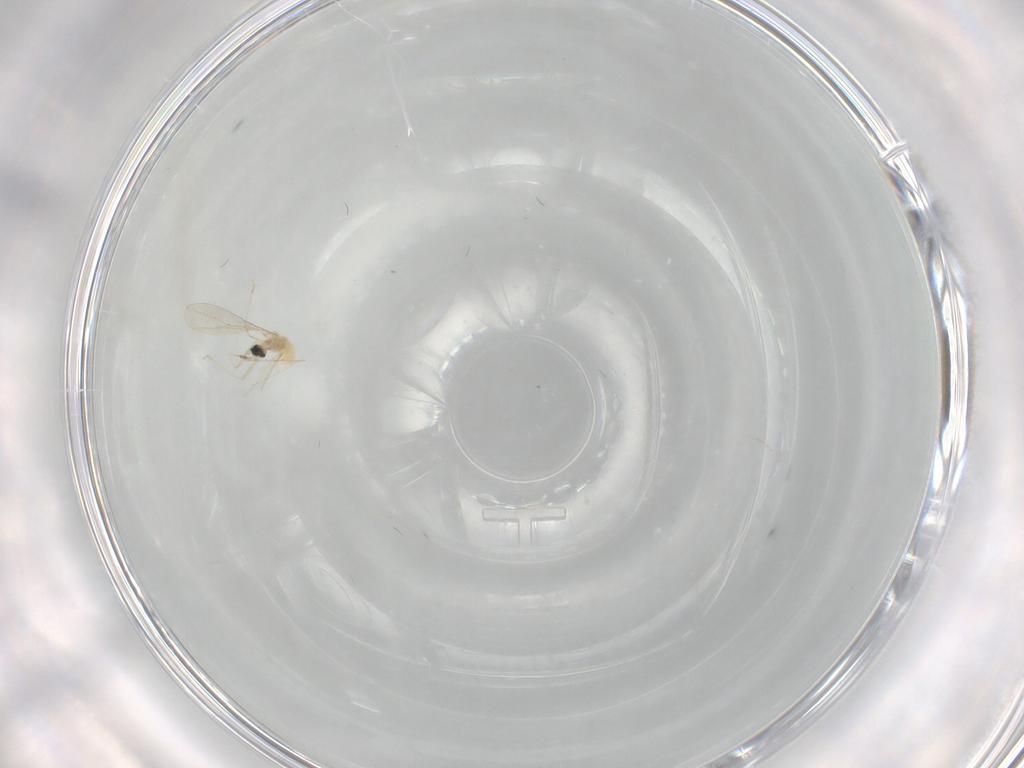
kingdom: Animalia
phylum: Arthropoda
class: Insecta
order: Diptera
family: Cecidomyiidae
